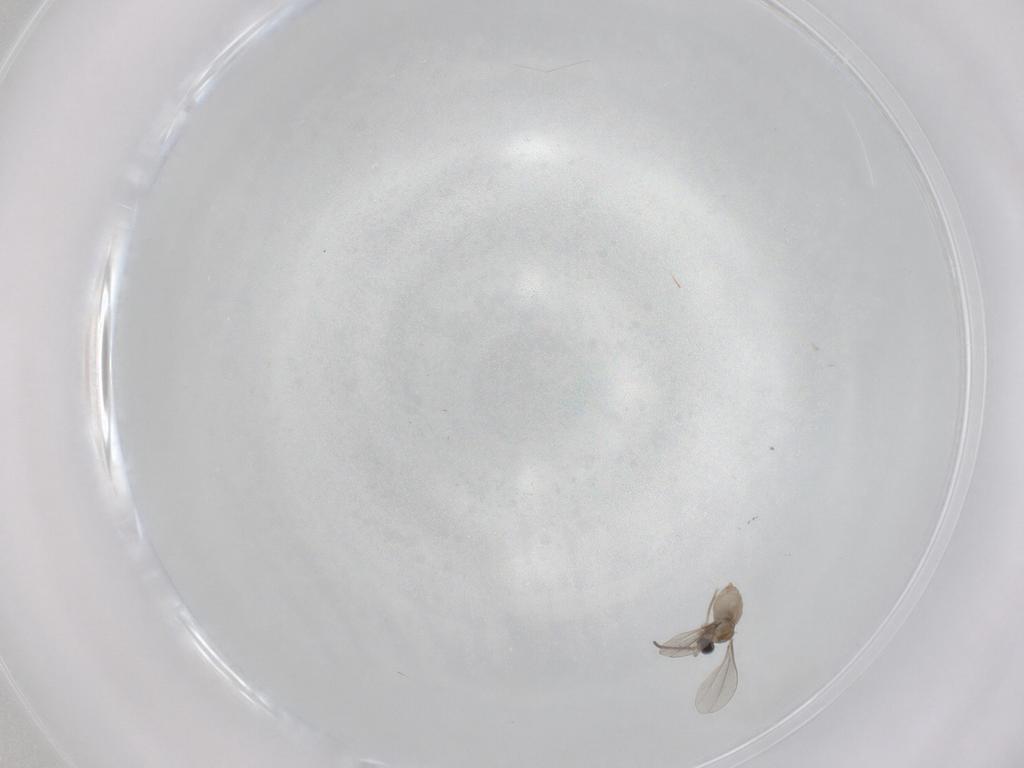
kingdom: Animalia
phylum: Arthropoda
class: Insecta
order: Diptera
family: Cecidomyiidae
